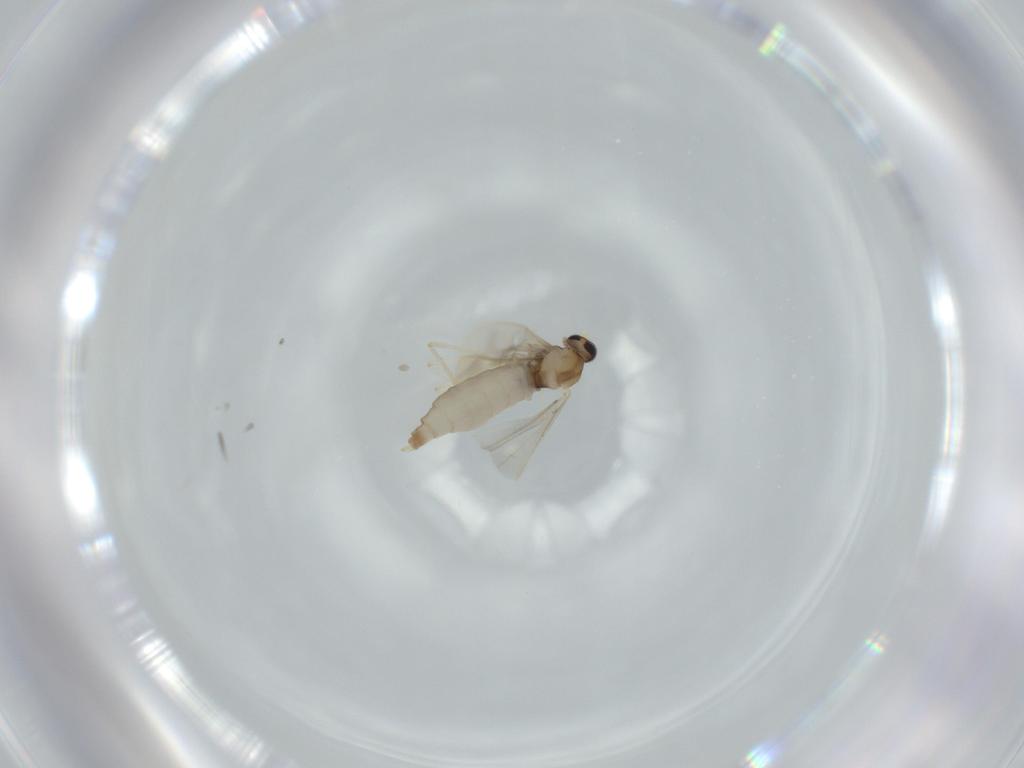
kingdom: Animalia
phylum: Arthropoda
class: Insecta
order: Diptera
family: Cecidomyiidae
